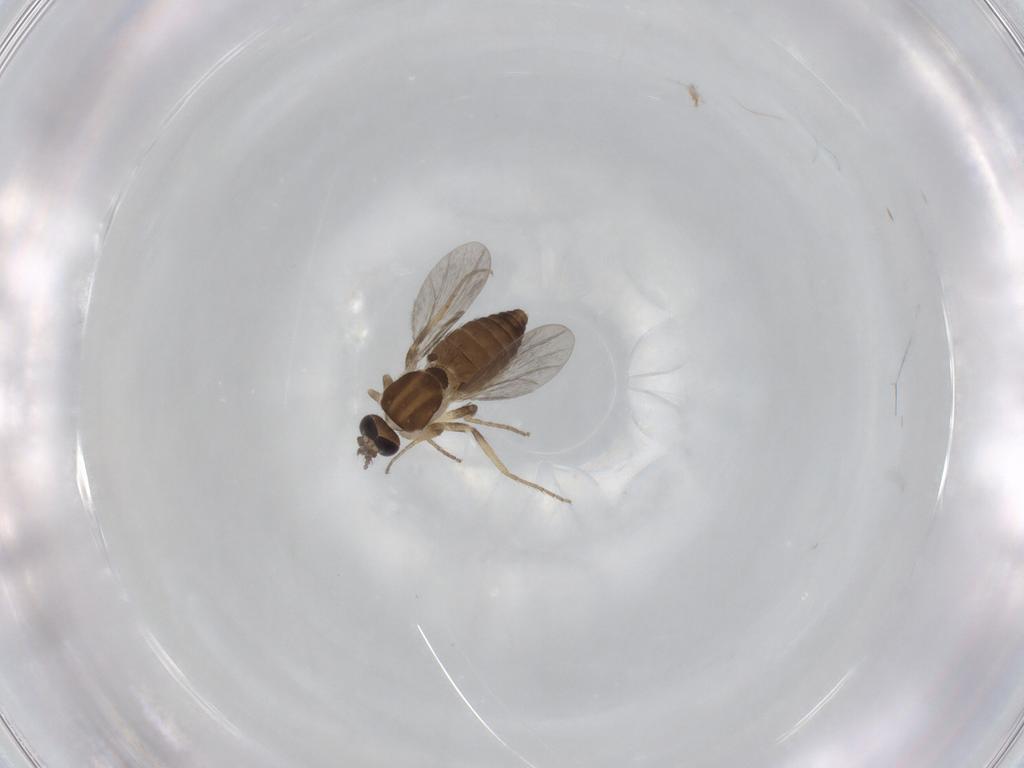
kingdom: Animalia
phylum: Arthropoda
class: Insecta
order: Diptera
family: Ceratopogonidae
